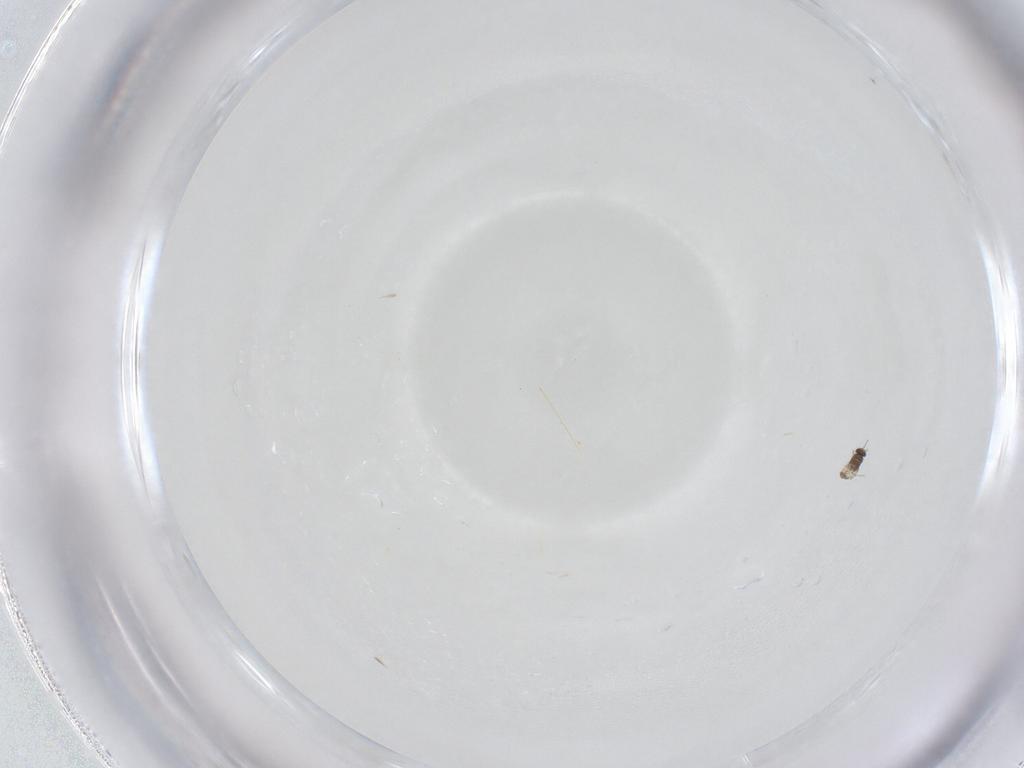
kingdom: Animalia
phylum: Arthropoda
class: Insecta
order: Hymenoptera
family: Mymaridae
